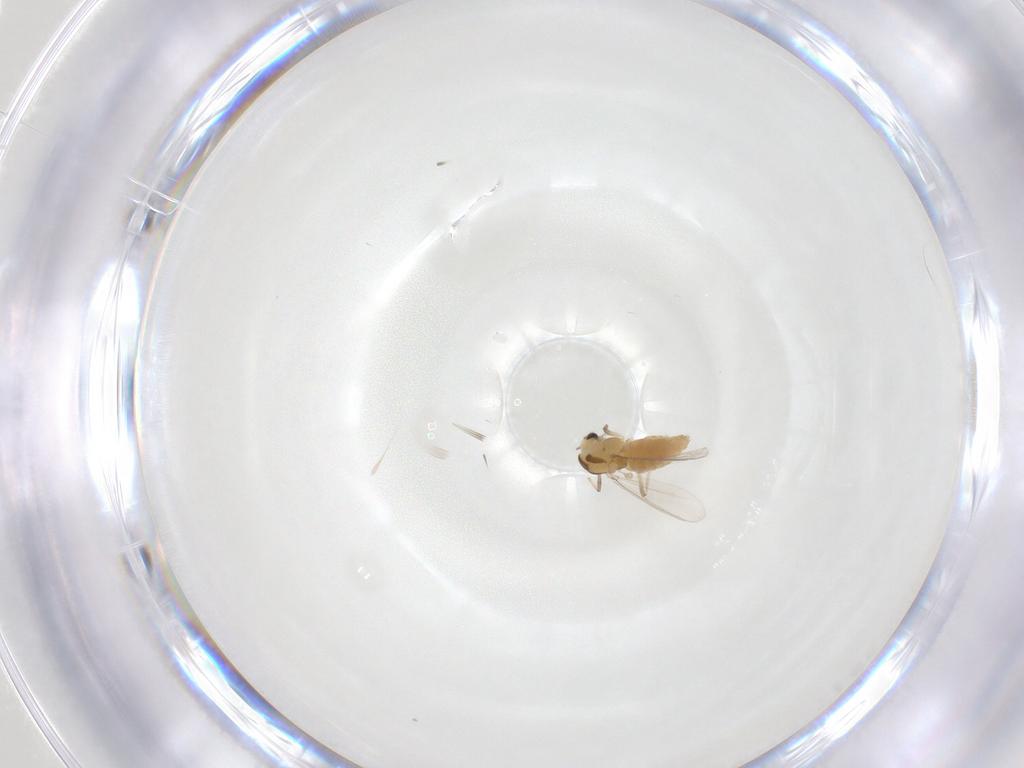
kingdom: Animalia
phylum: Arthropoda
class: Insecta
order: Diptera
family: Chironomidae
